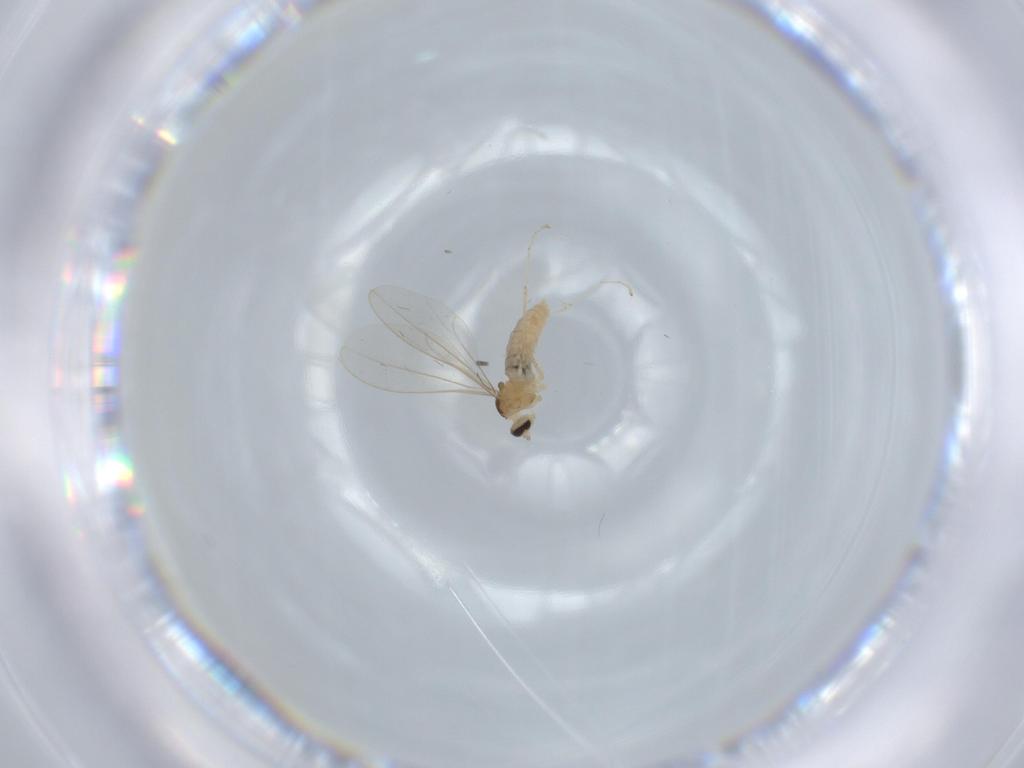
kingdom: Animalia
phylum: Arthropoda
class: Insecta
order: Diptera
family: Cecidomyiidae
